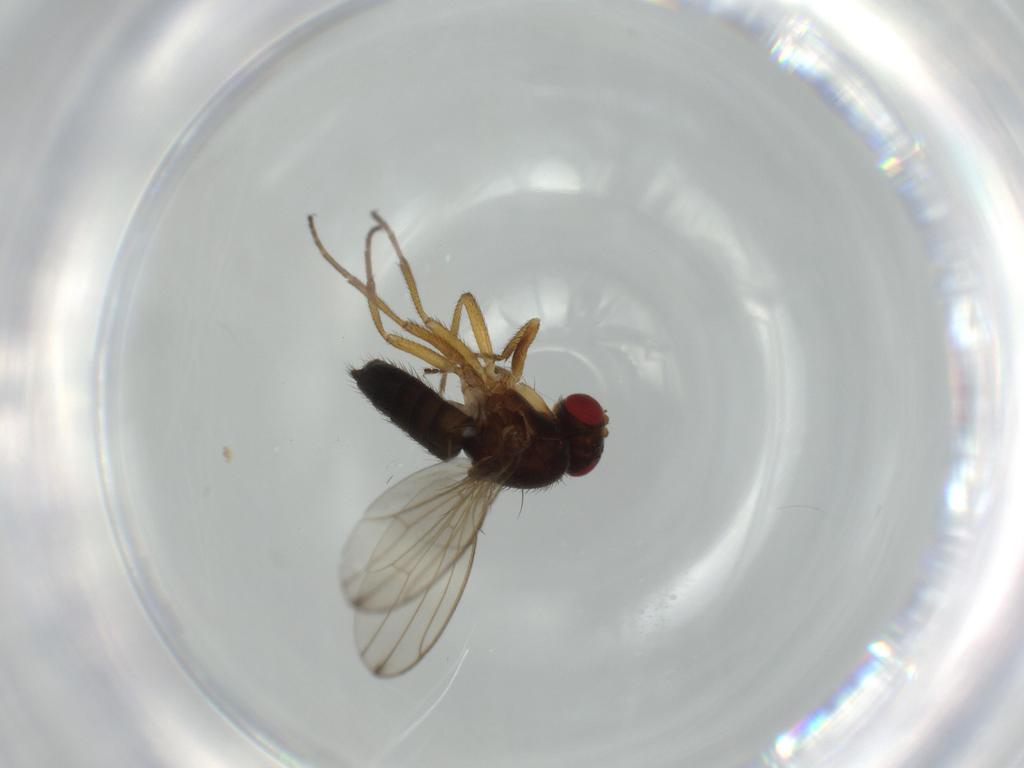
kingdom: Animalia
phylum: Arthropoda
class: Insecta
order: Diptera
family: Drosophilidae
